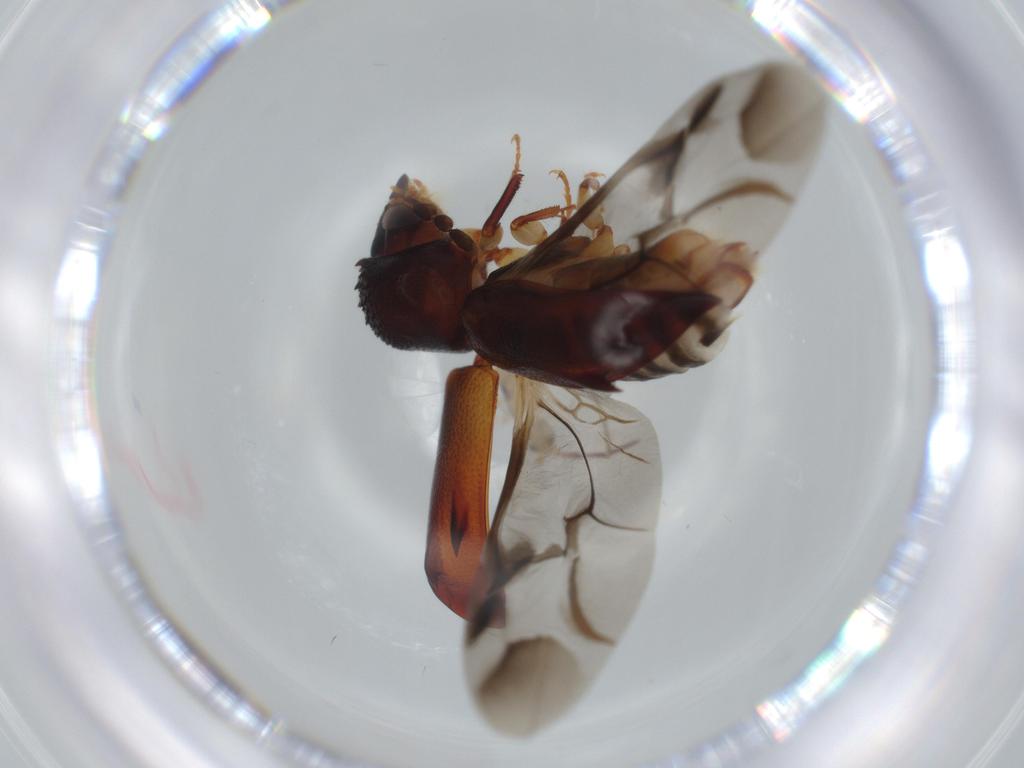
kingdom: Animalia
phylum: Arthropoda
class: Insecta
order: Coleoptera
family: Bostrichidae
